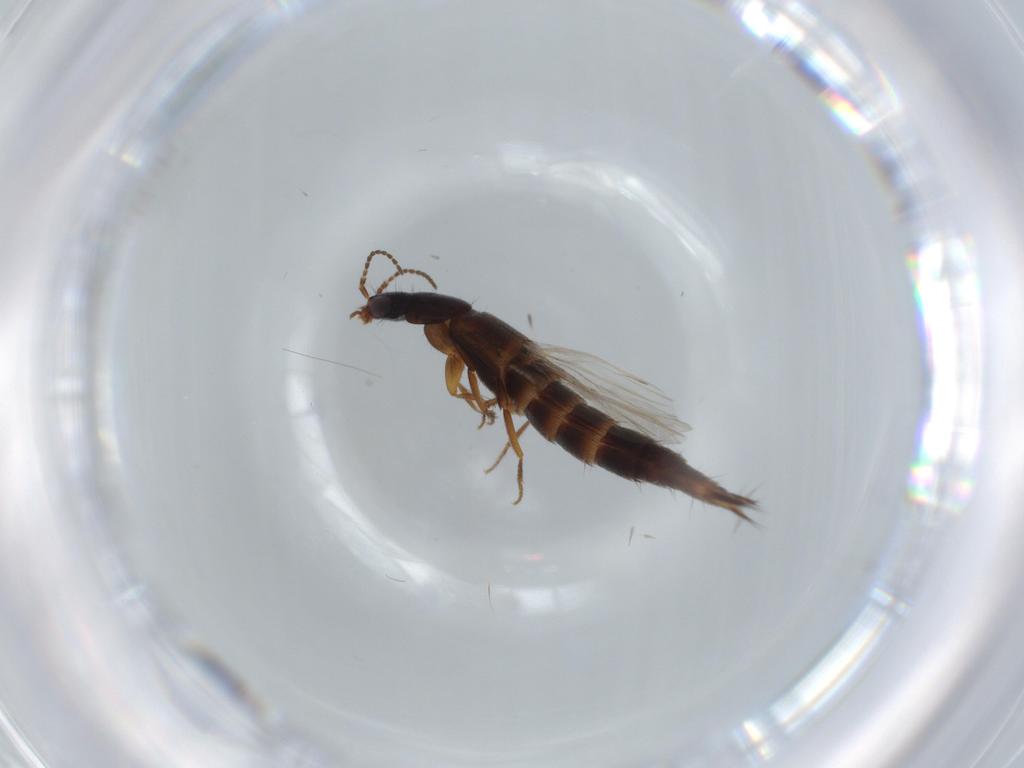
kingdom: Animalia
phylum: Arthropoda
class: Insecta
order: Coleoptera
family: Staphylinidae
